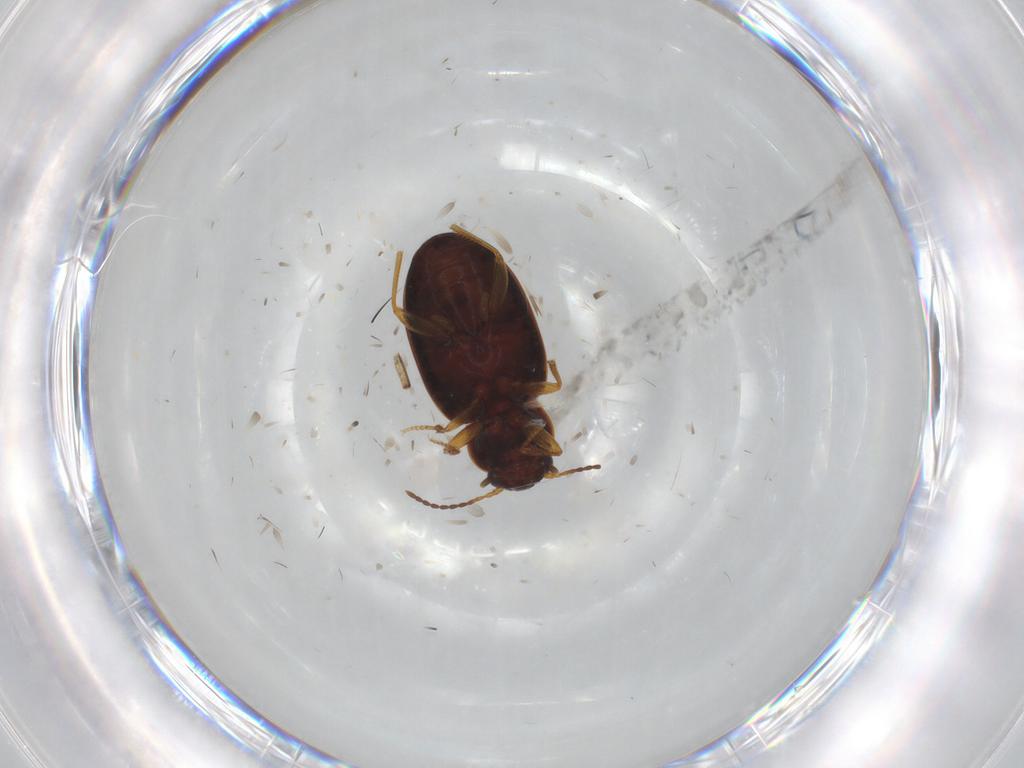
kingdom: Animalia
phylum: Arthropoda
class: Insecta
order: Coleoptera
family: Carabidae
